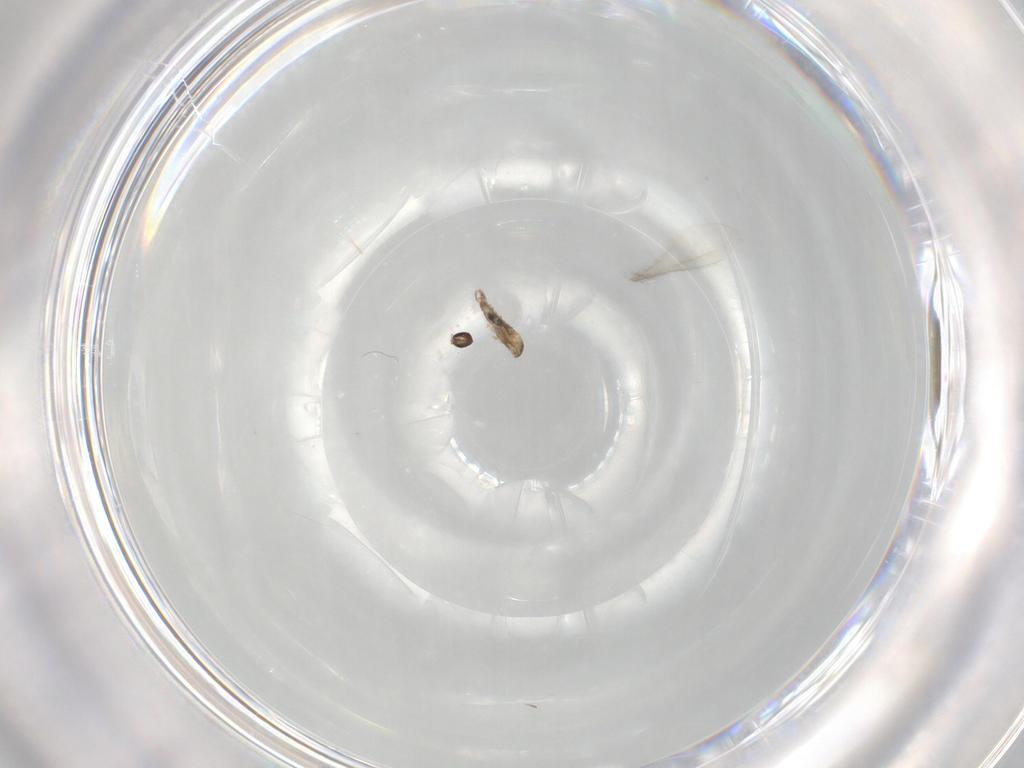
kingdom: Animalia
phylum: Arthropoda
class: Insecta
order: Diptera
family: Cecidomyiidae
